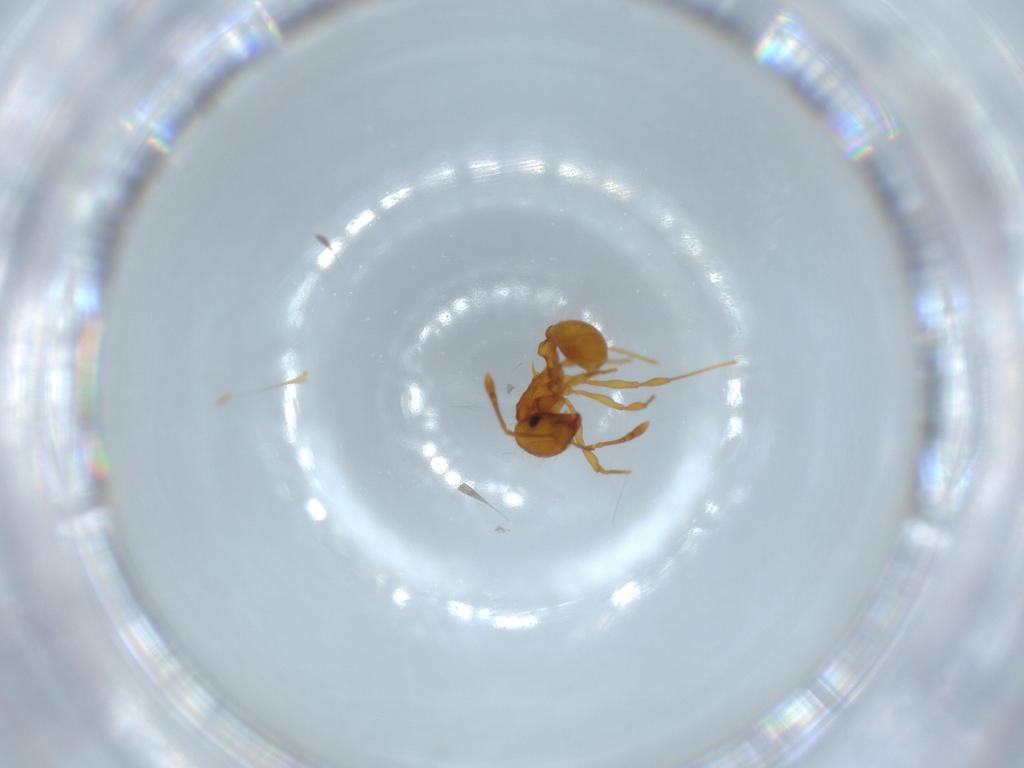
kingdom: Animalia
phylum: Arthropoda
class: Insecta
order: Hymenoptera
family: Formicidae
